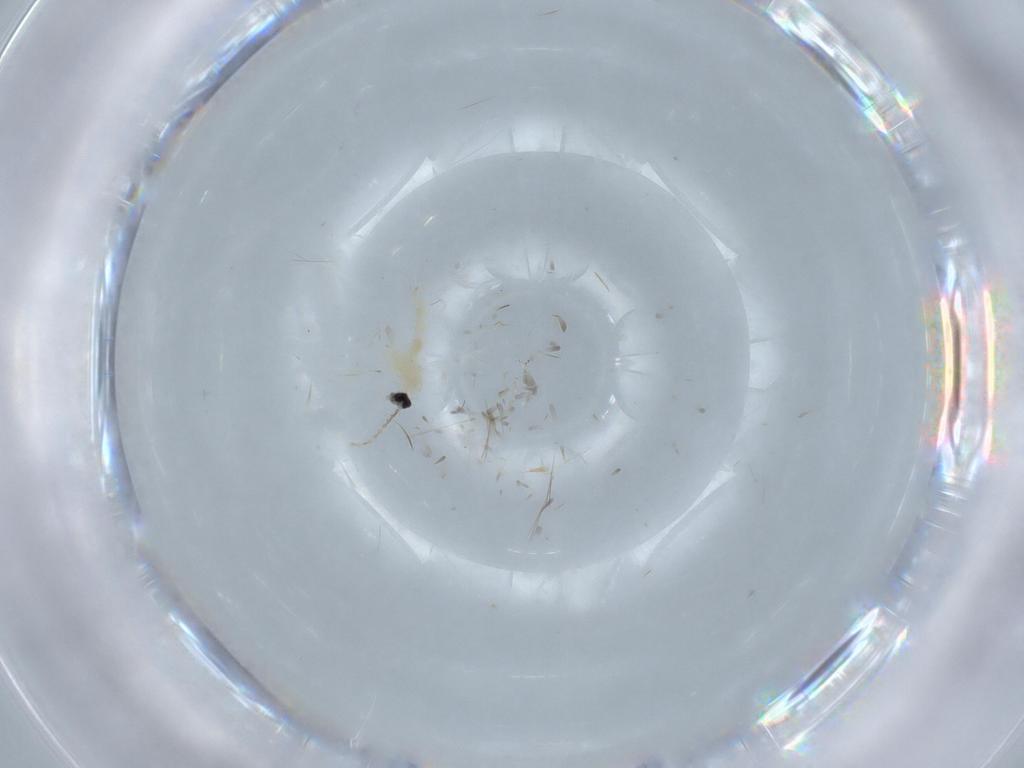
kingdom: Animalia
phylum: Arthropoda
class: Insecta
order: Diptera
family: Cecidomyiidae
